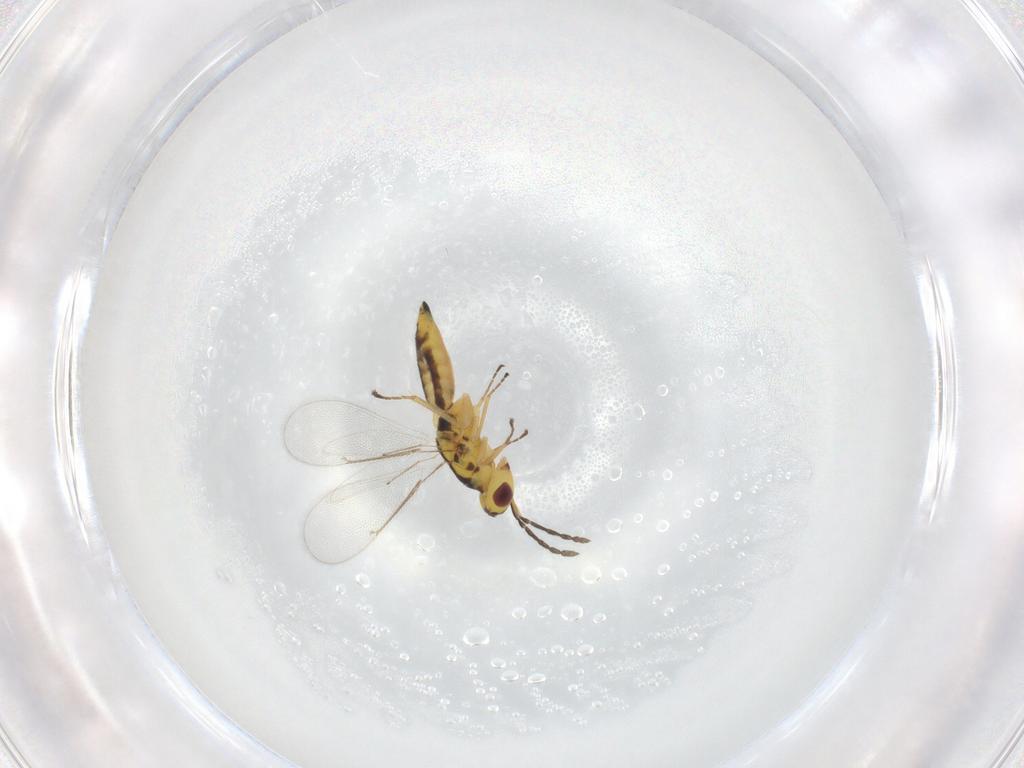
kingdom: Animalia
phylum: Arthropoda
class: Insecta
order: Hymenoptera
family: Eulophidae
